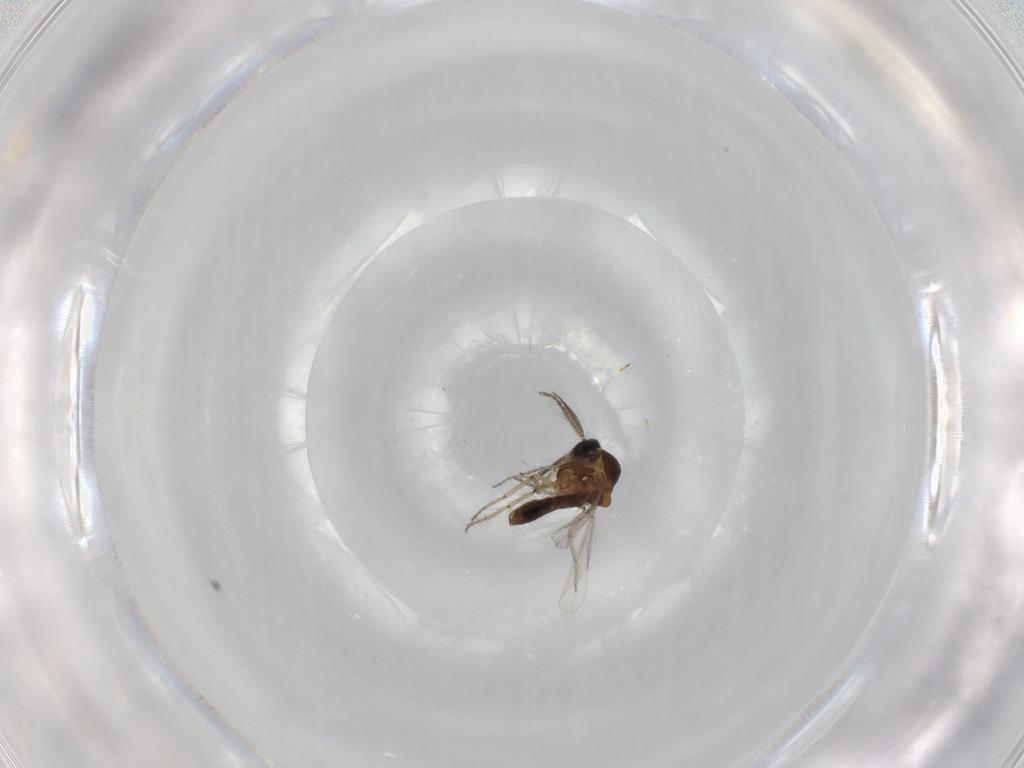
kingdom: Animalia
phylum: Arthropoda
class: Insecta
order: Diptera
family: Ceratopogonidae
